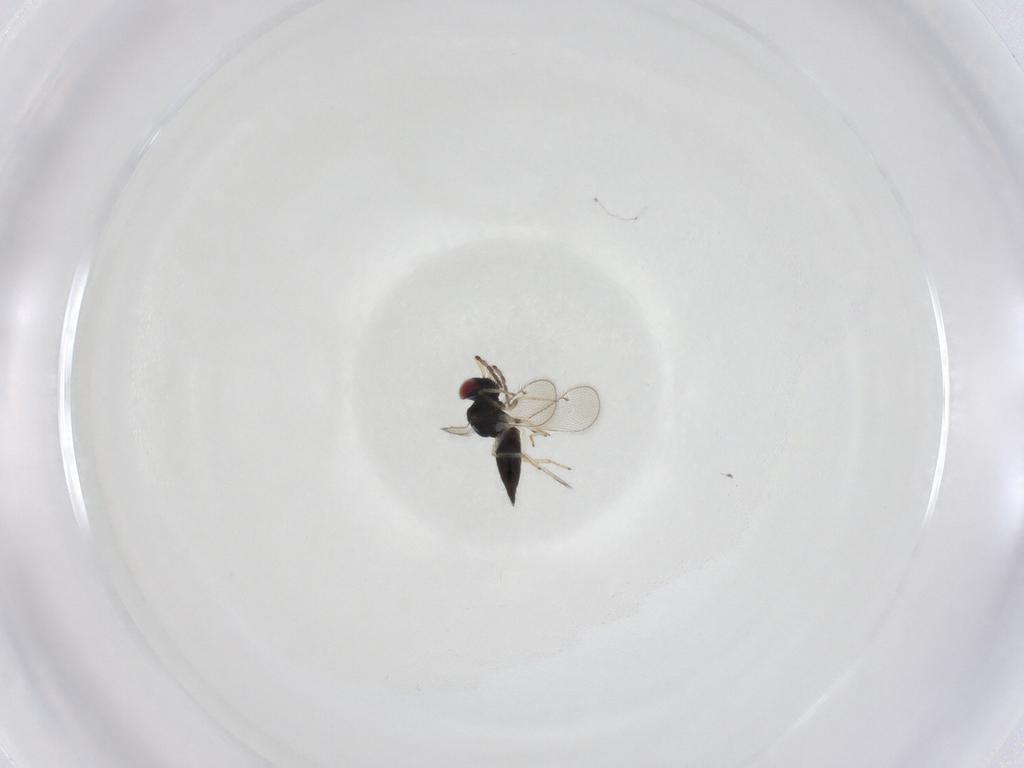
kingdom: Animalia
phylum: Arthropoda
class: Insecta
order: Hymenoptera
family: Eulophidae
